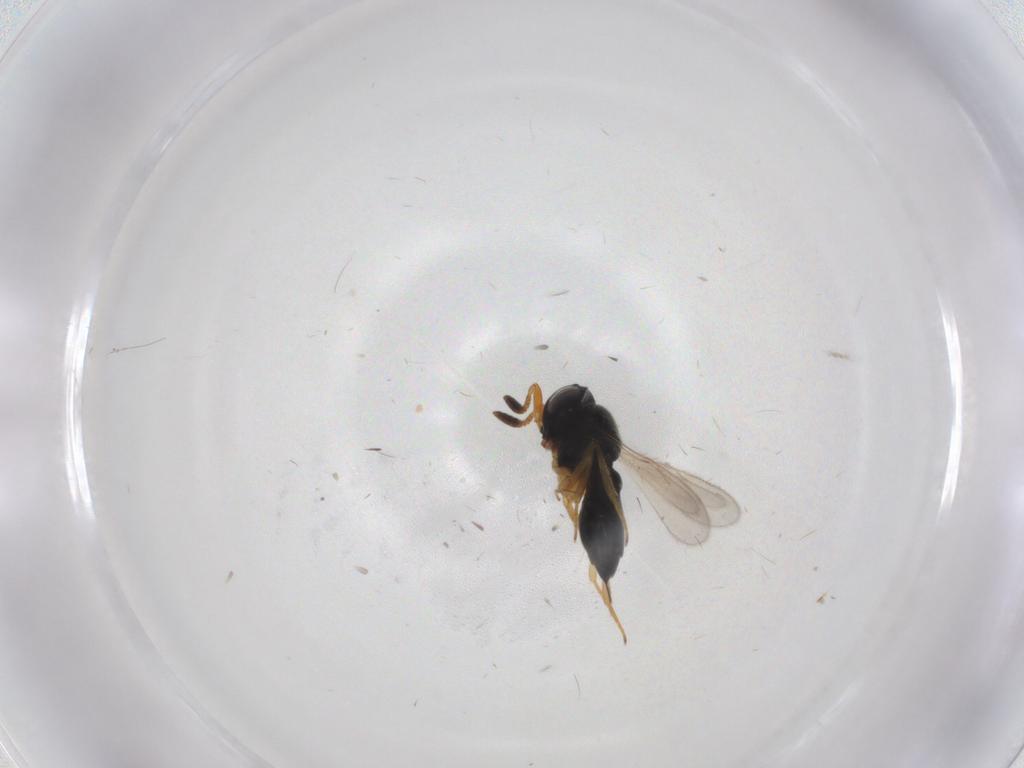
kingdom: Animalia
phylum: Arthropoda
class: Insecta
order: Hymenoptera
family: Scelionidae
